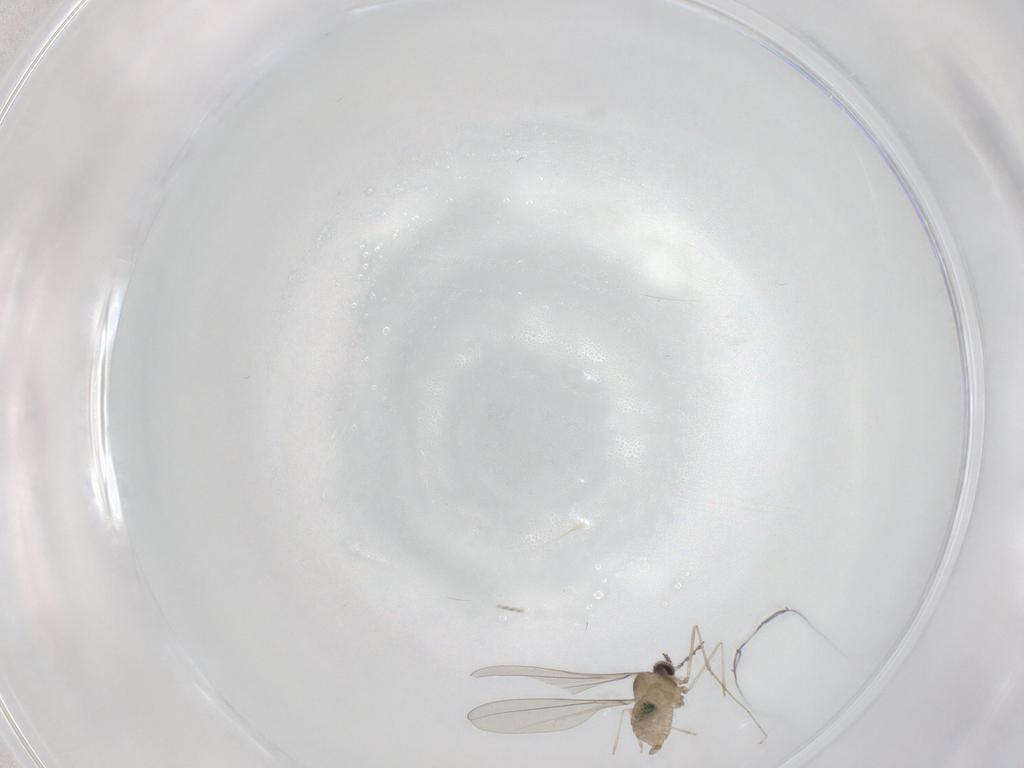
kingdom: Animalia
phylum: Arthropoda
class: Insecta
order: Diptera
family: Cecidomyiidae
